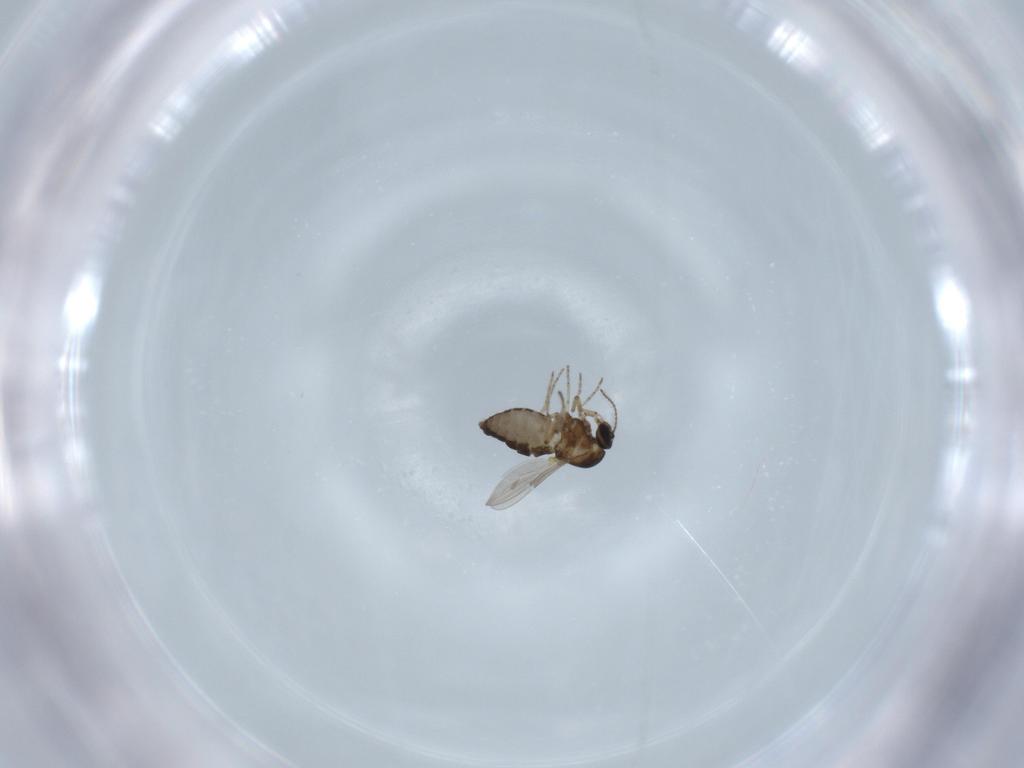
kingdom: Animalia
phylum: Arthropoda
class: Insecta
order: Diptera
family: Ceratopogonidae
